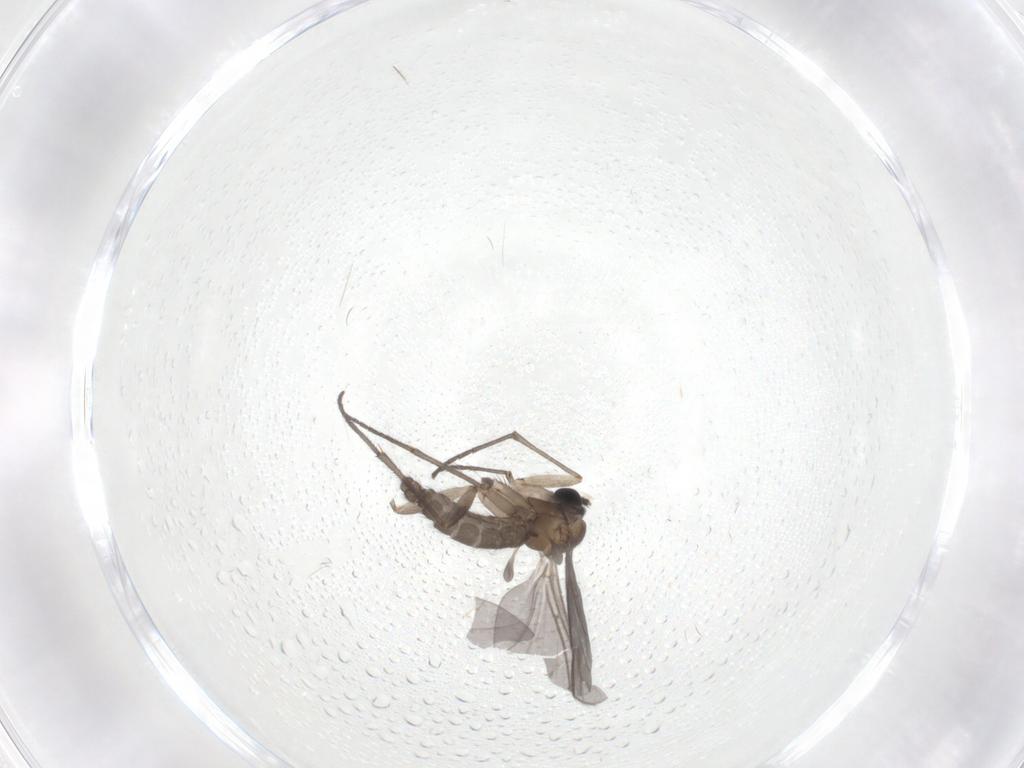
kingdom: Animalia
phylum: Arthropoda
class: Insecta
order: Diptera
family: Sciaridae
